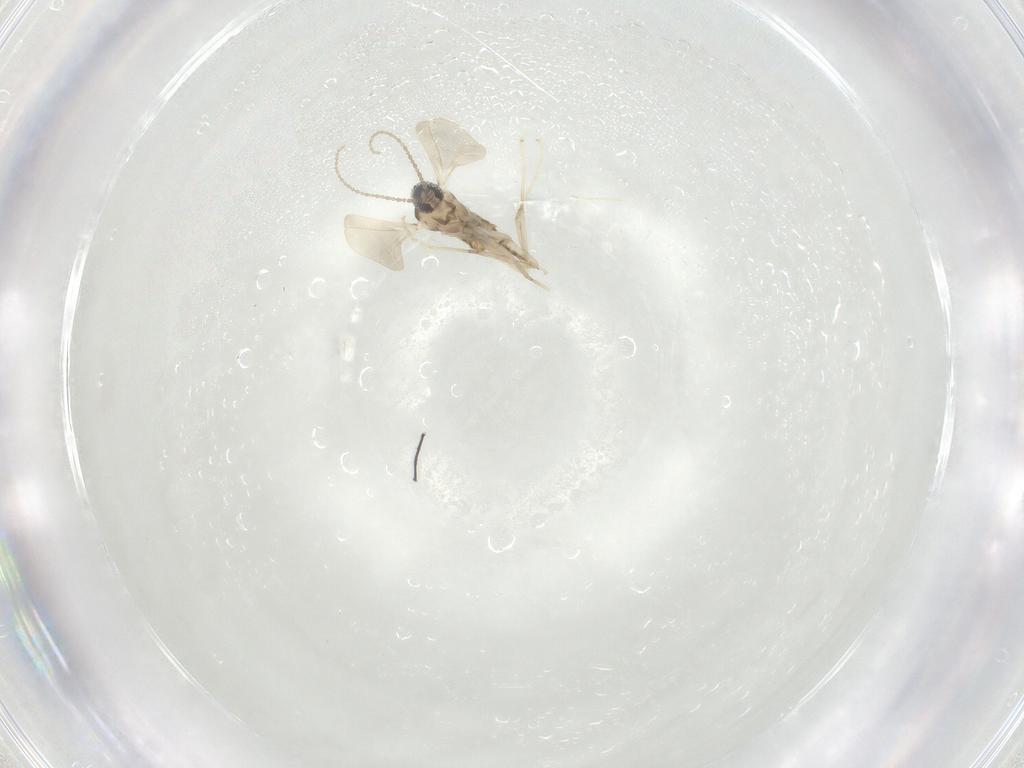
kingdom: Animalia
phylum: Arthropoda
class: Insecta
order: Diptera
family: Cecidomyiidae
